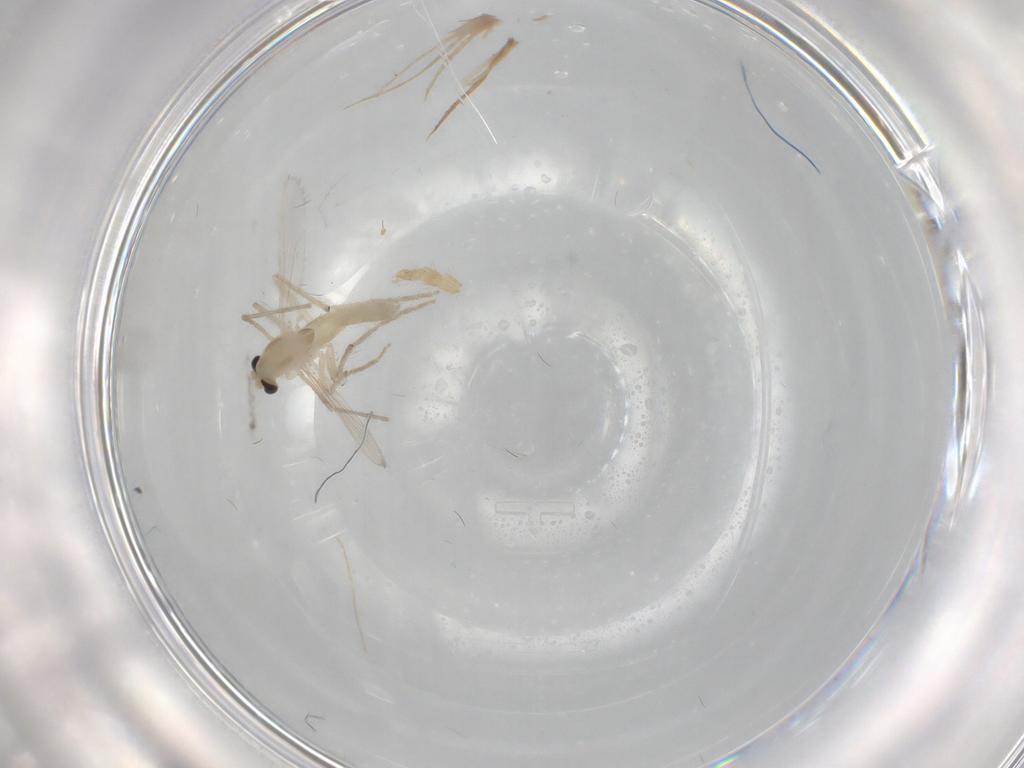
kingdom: Animalia
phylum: Arthropoda
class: Insecta
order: Diptera
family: Chironomidae
